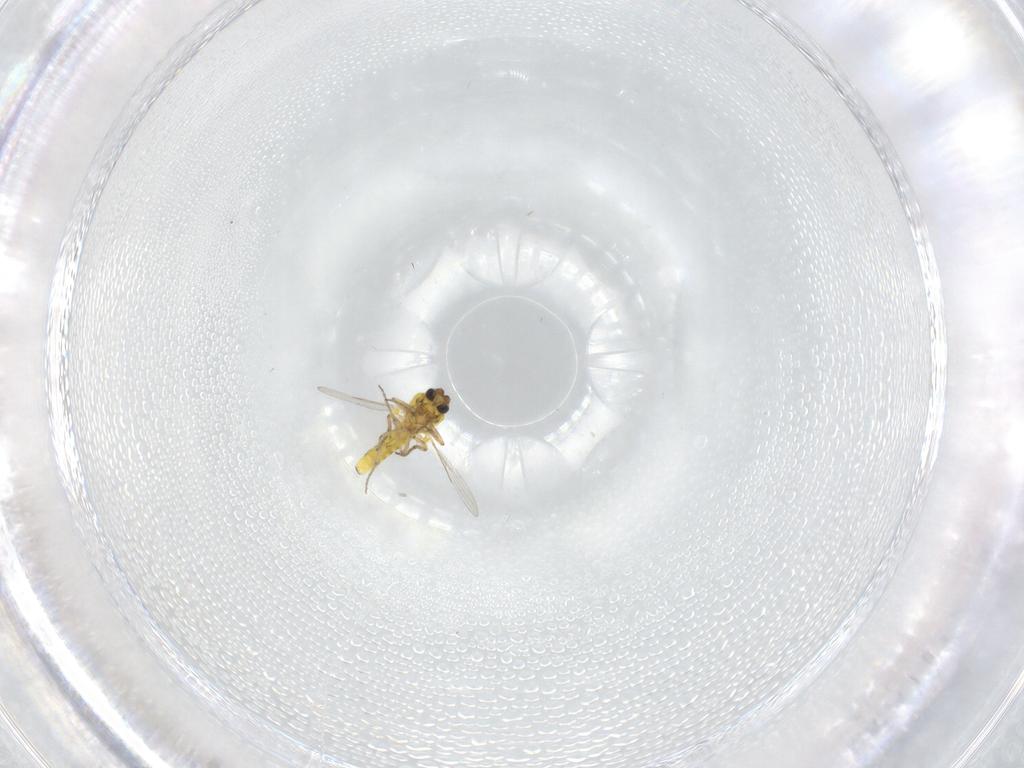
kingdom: Animalia
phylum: Arthropoda
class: Insecta
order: Diptera
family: Ceratopogonidae
